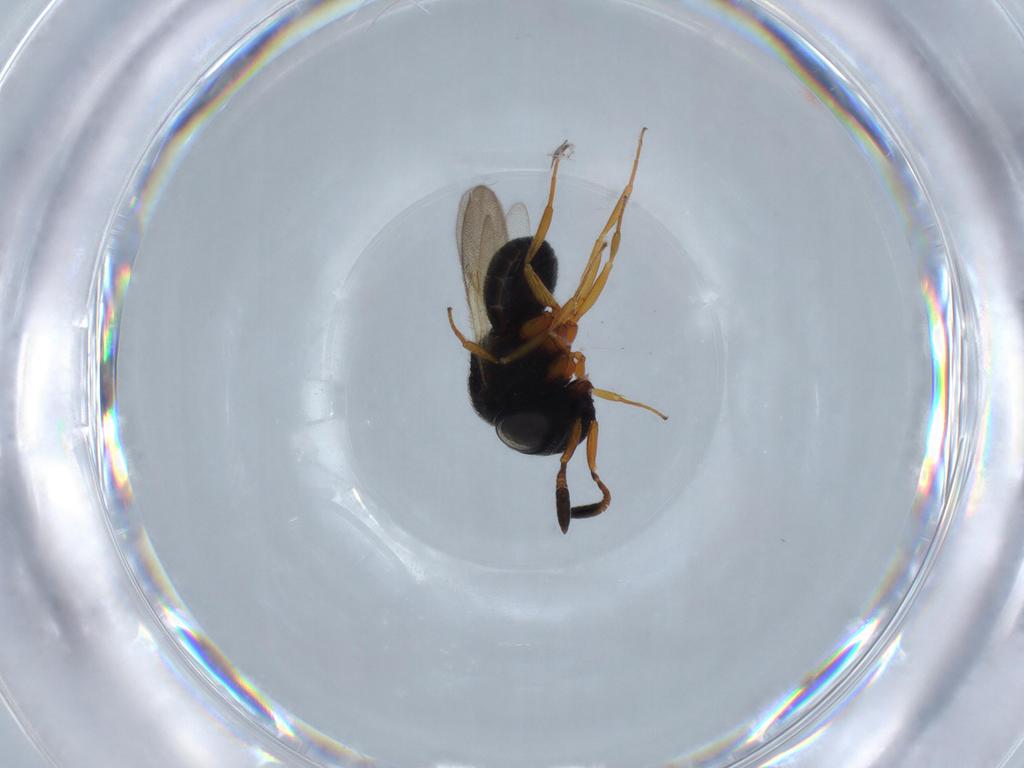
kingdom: Animalia
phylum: Arthropoda
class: Insecta
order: Hymenoptera
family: Scelionidae
